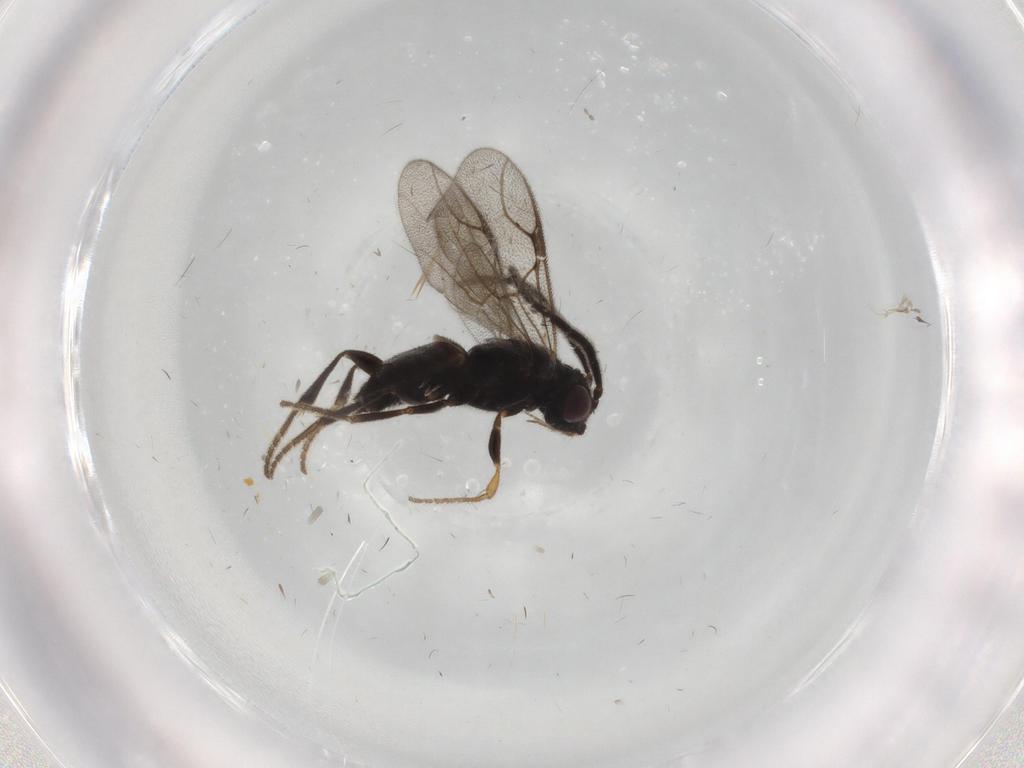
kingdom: Animalia
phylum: Arthropoda
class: Insecta
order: Hymenoptera
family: Dryinidae
